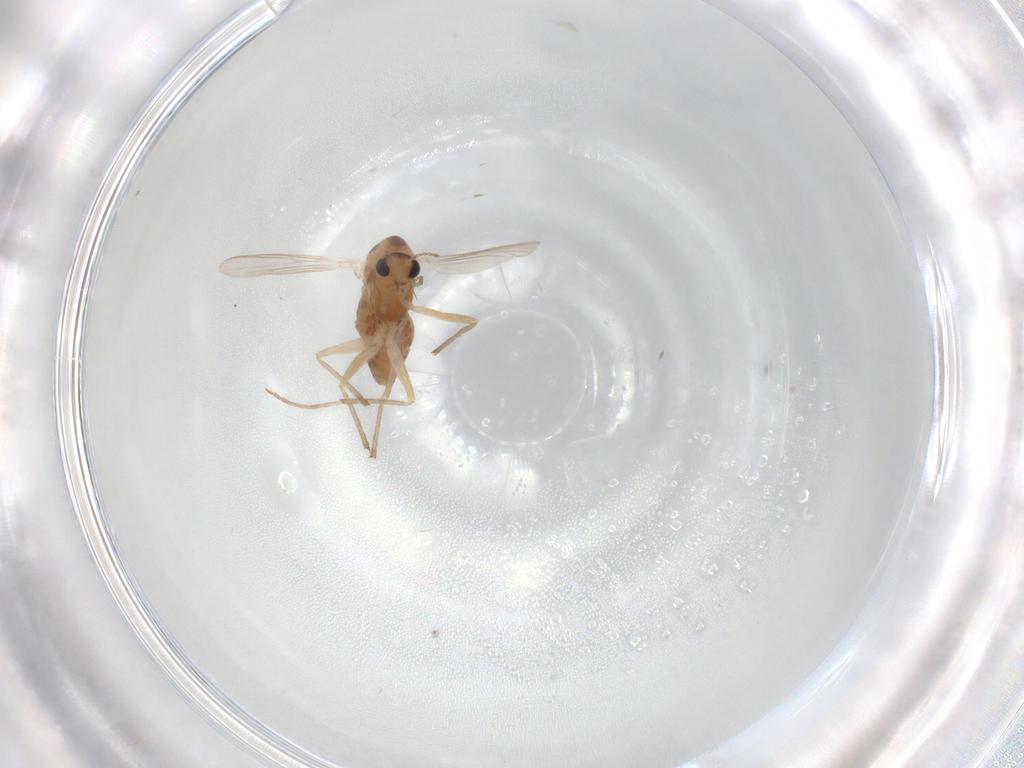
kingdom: Animalia
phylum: Arthropoda
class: Insecta
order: Diptera
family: Chironomidae
